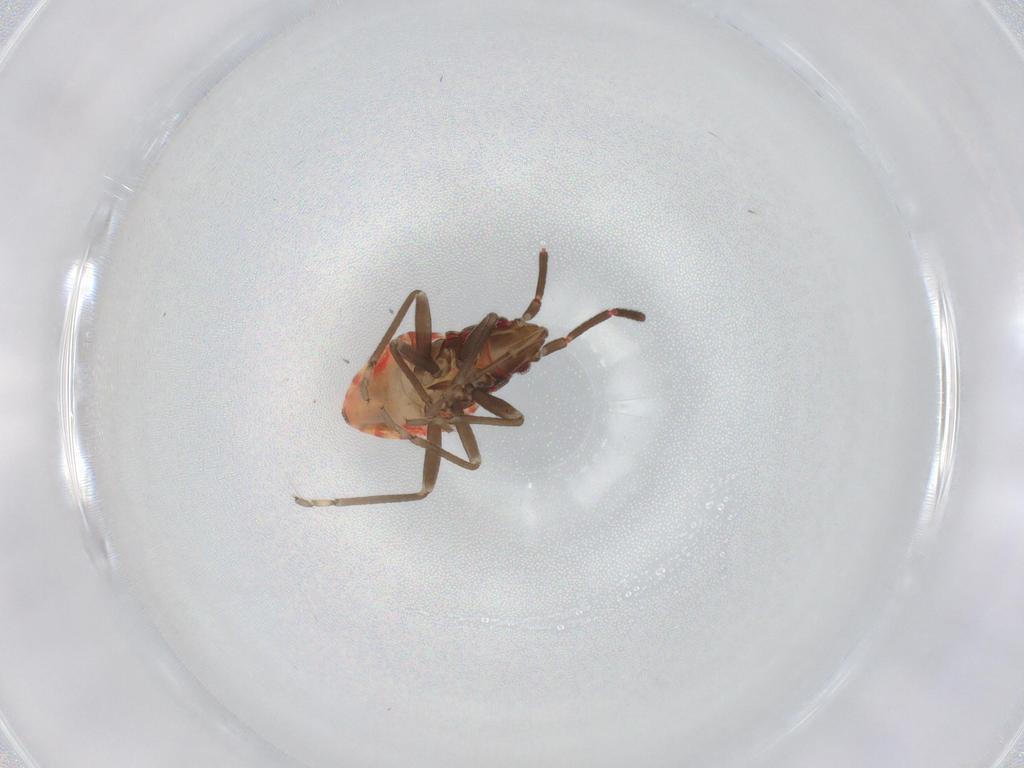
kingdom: Animalia
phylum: Arthropoda
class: Insecta
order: Hemiptera
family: Rhyparochromidae
